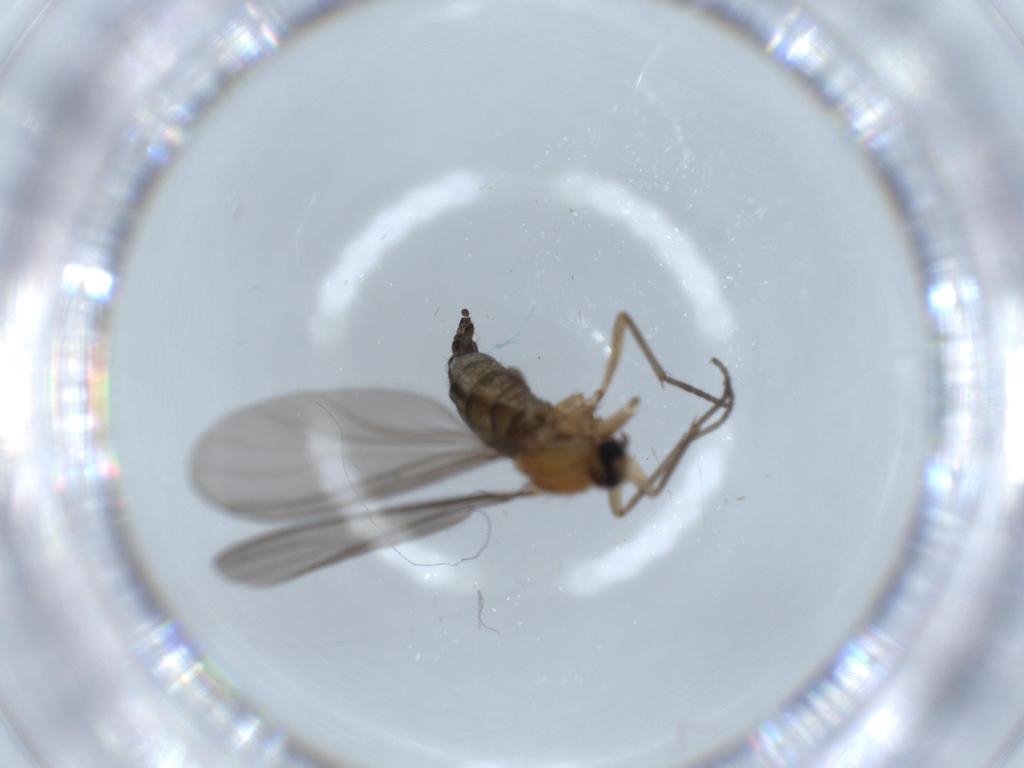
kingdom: Animalia
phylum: Arthropoda
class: Insecta
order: Diptera
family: Sciaridae
